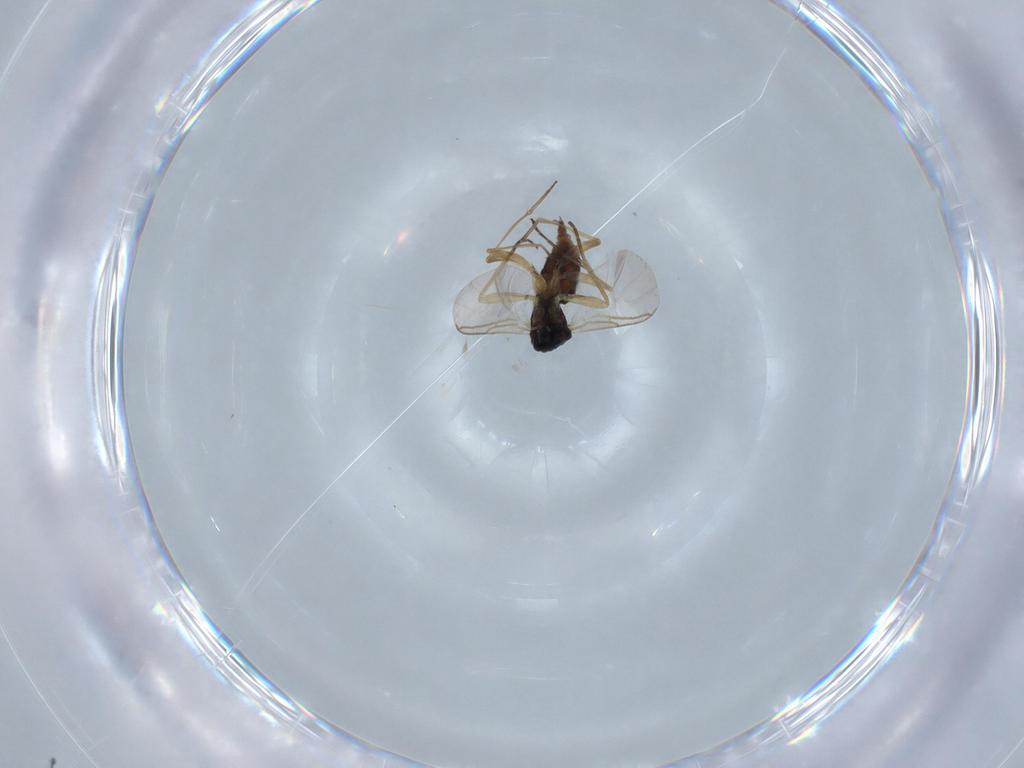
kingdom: Animalia
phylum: Arthropoda
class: Insecta
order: Diptera
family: Sciaridae
